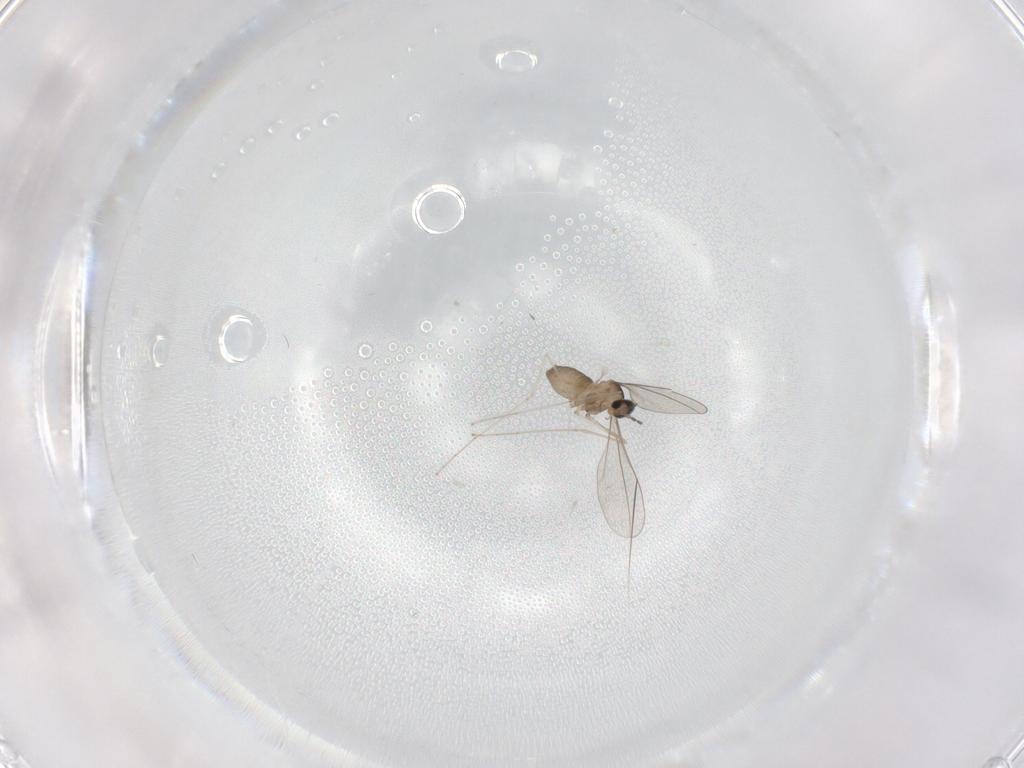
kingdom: Animalia
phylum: Arthropoda
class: Insecta
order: Diptera
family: Cecidomyiidae
